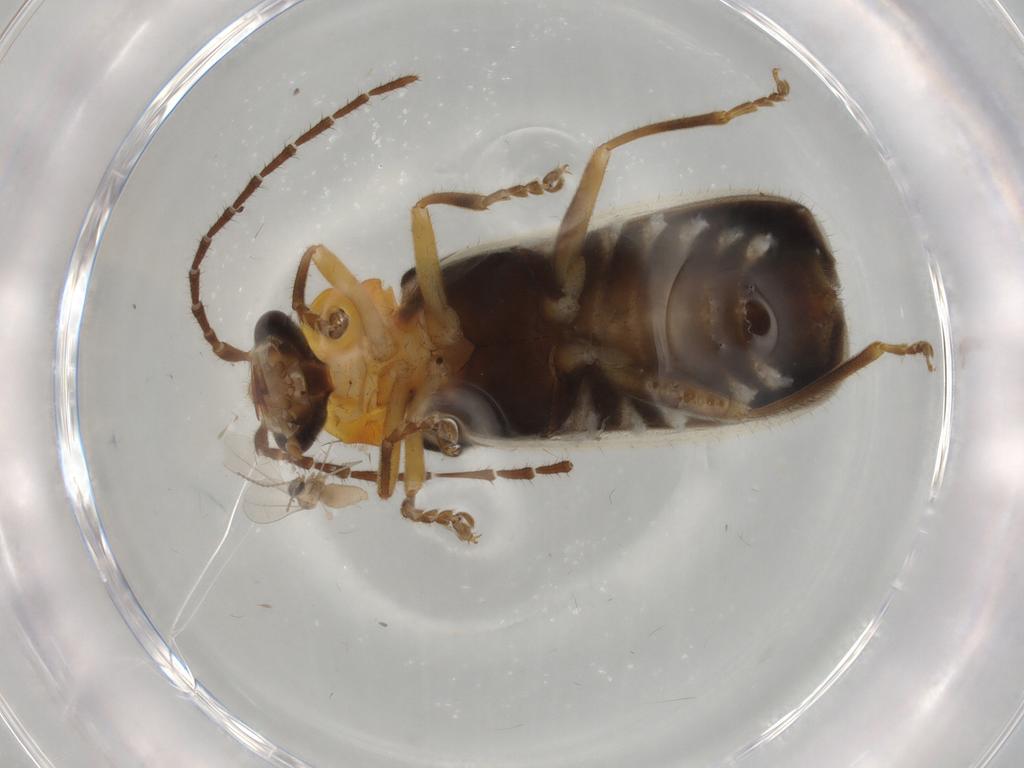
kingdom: Animalia
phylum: Arthropoda
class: Insecta
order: Coleoptera
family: Cantharidae
